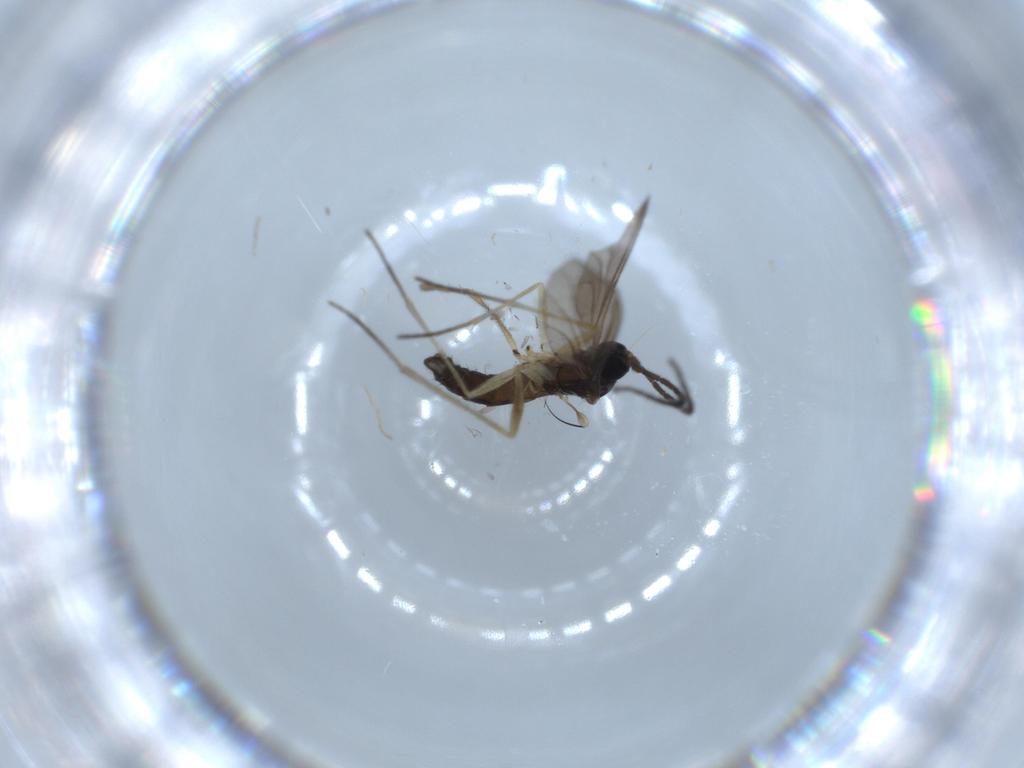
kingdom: Animalia
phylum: Arthropoda
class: Insecta
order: Diptera
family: Sciaridae
